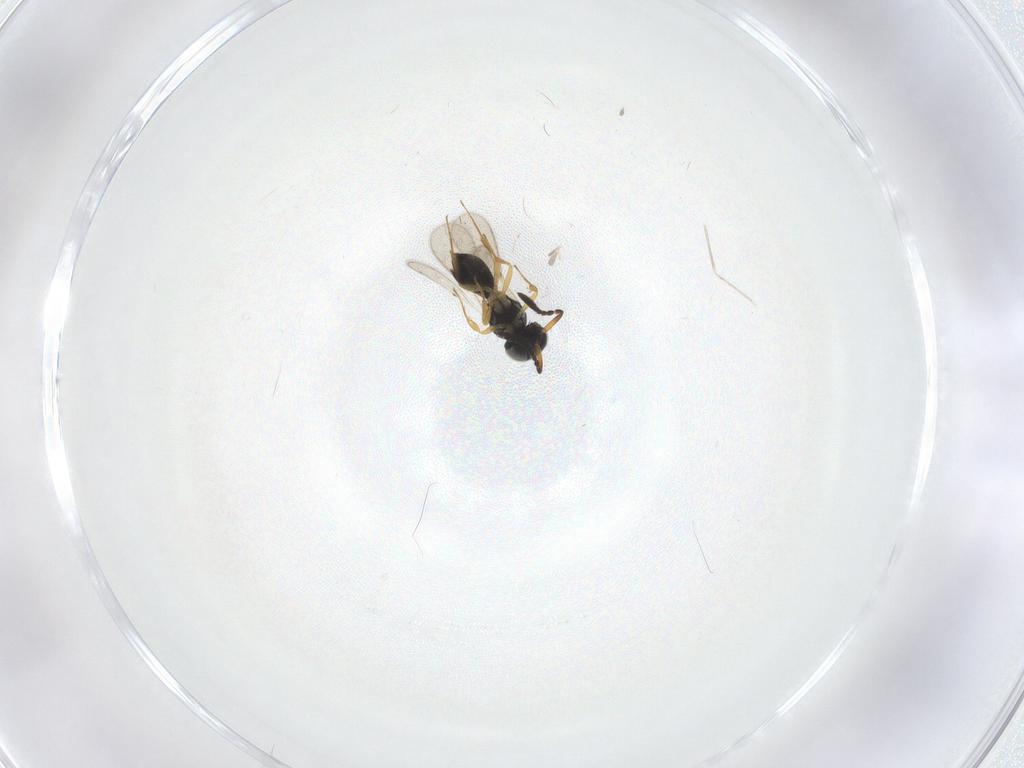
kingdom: Animalia
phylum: Arthropoda
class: Insecta
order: Hymenoptera
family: Scelionidae
